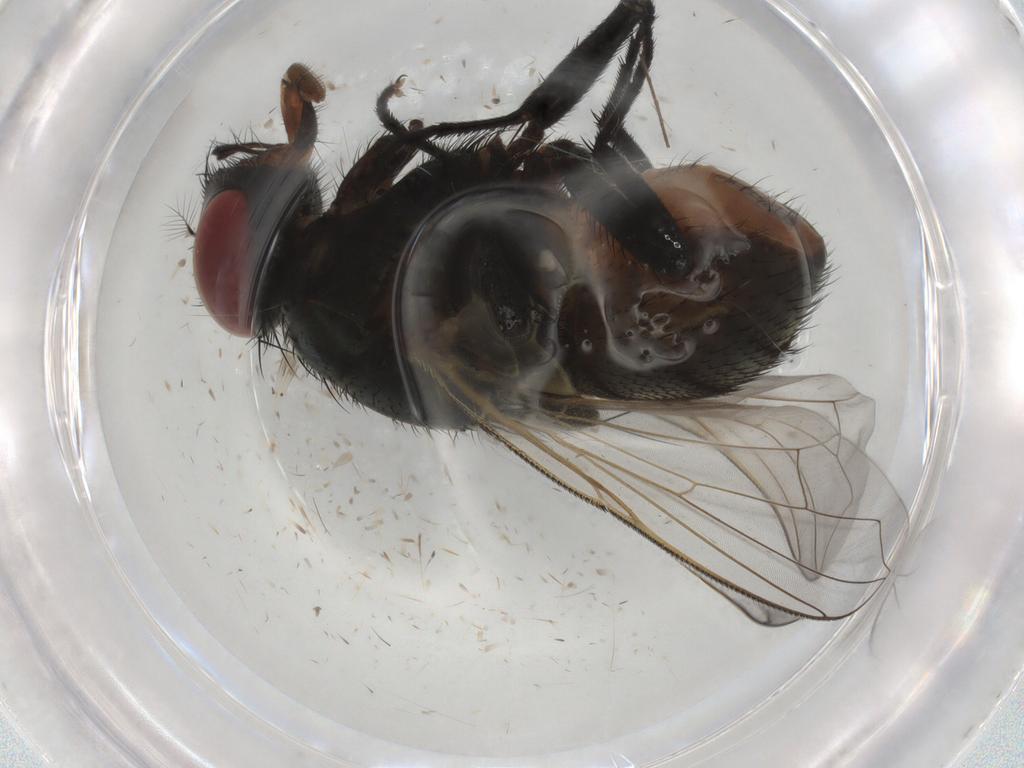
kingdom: Animalia
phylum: Arthropoda
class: Insecta
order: Diptera
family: Muscidae
